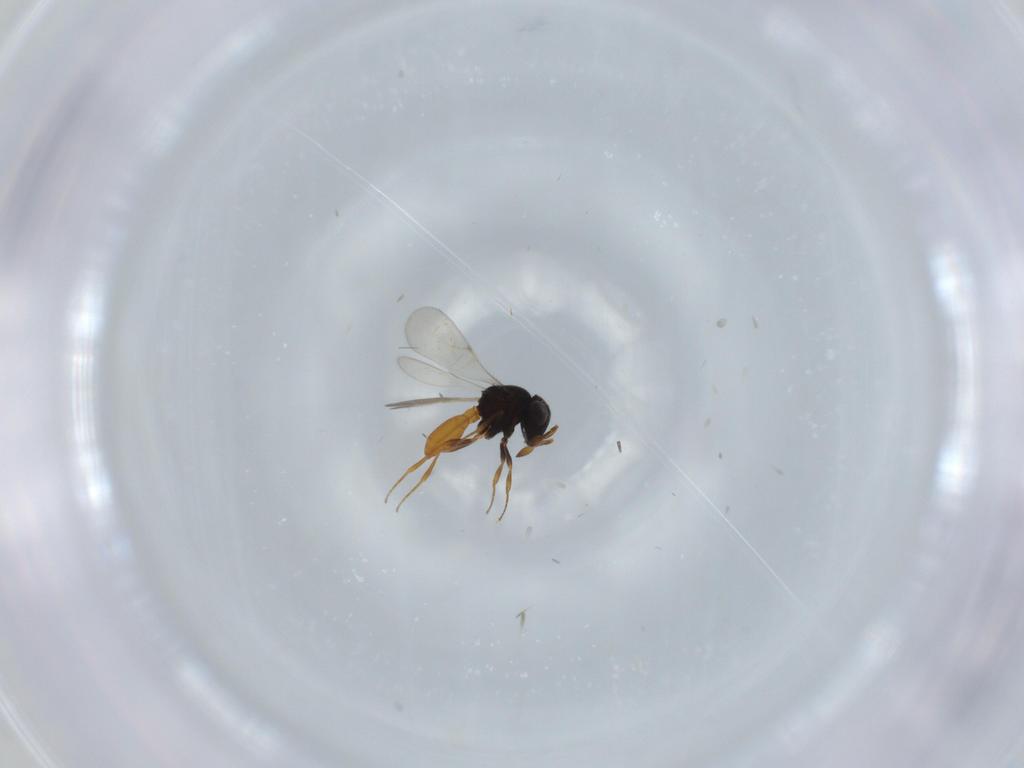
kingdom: Animalia
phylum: Arthropoda
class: Insecta
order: Hymenoptera
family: Scelionidae
